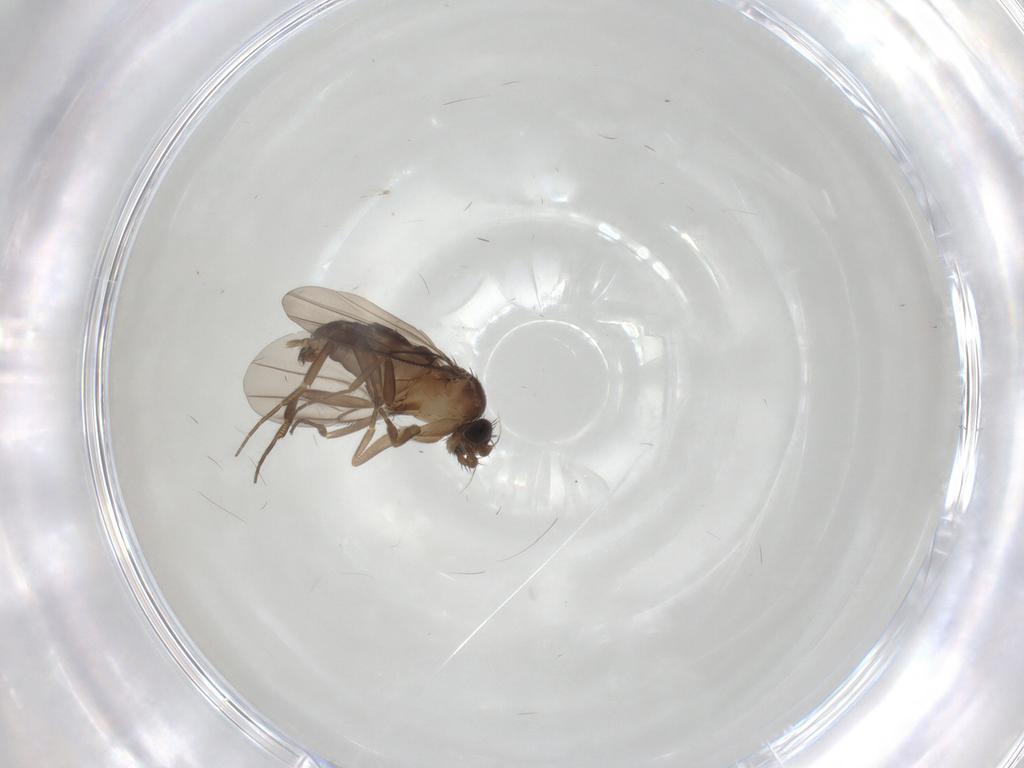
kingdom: Animalia
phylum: Arthropoda
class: Insecta
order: Diptera
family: Phoridae
